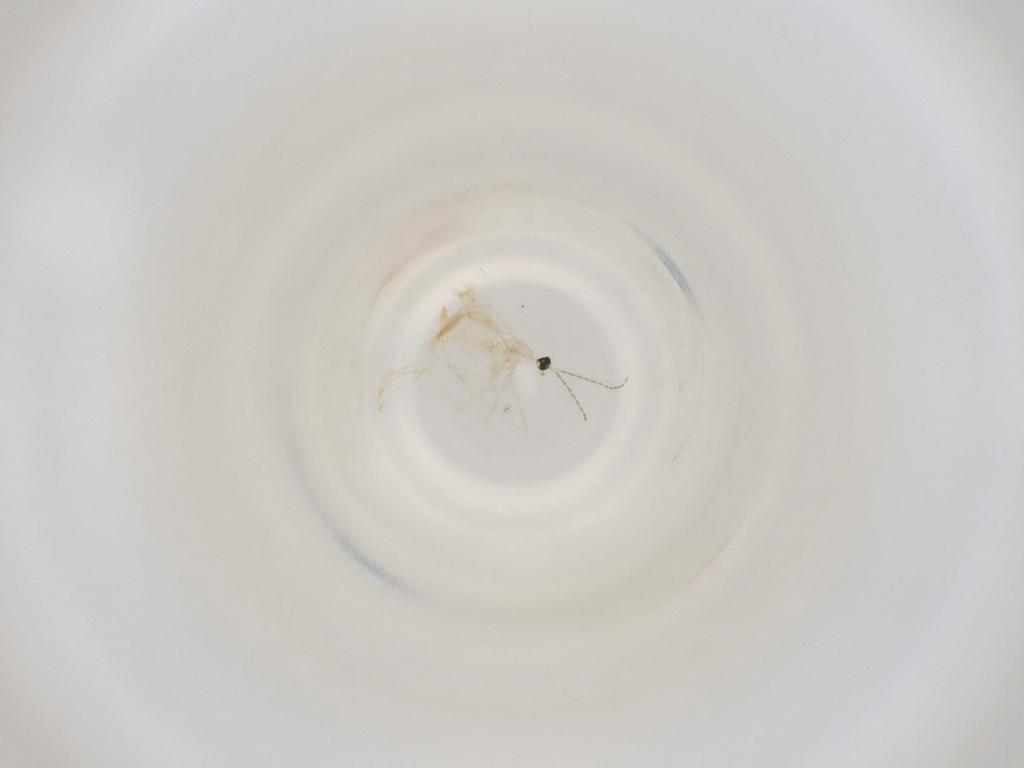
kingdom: Animalia
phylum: Arthropoda
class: Insecta
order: Diptera
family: Cecidomyiidae
